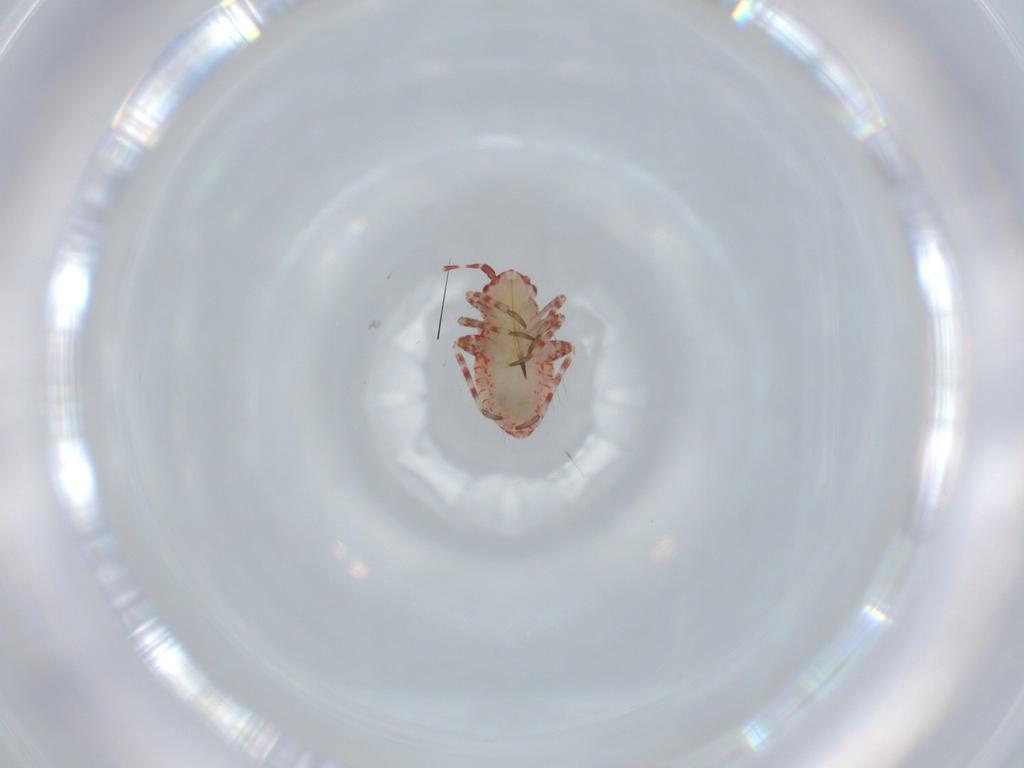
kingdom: Animalia
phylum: Arthropoda
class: Insecta
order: Hemiptera
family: Miridae
